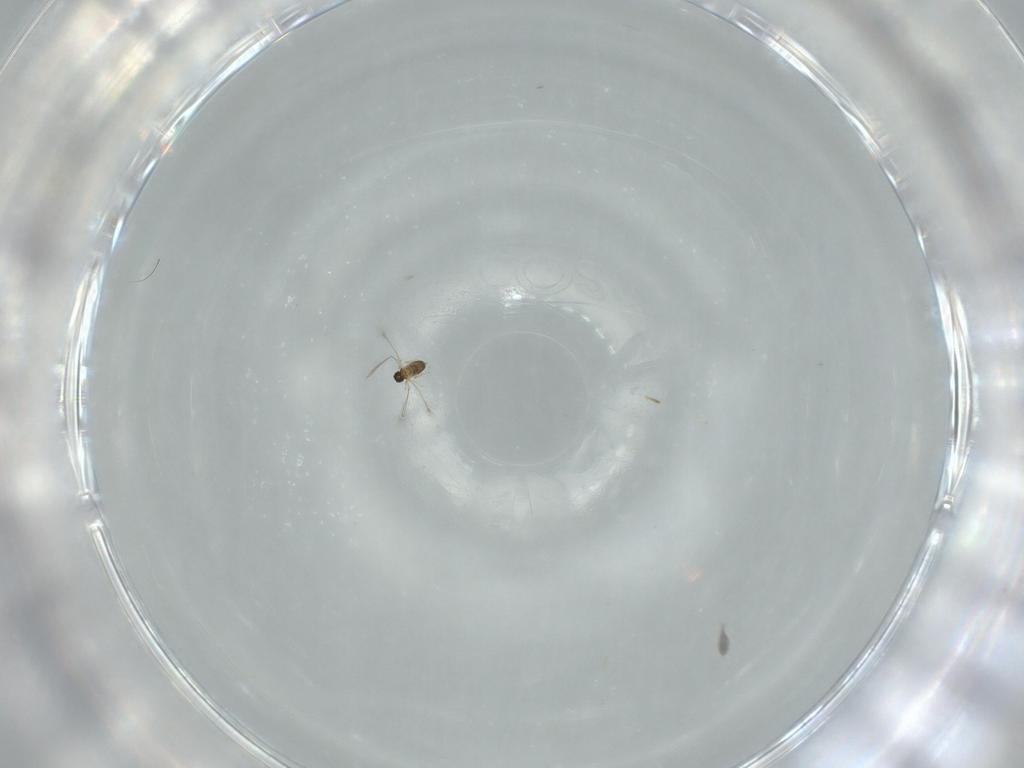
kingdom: Animalia
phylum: Arthropoda
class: Insecta
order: Hymenoptera
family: Mymaridae
